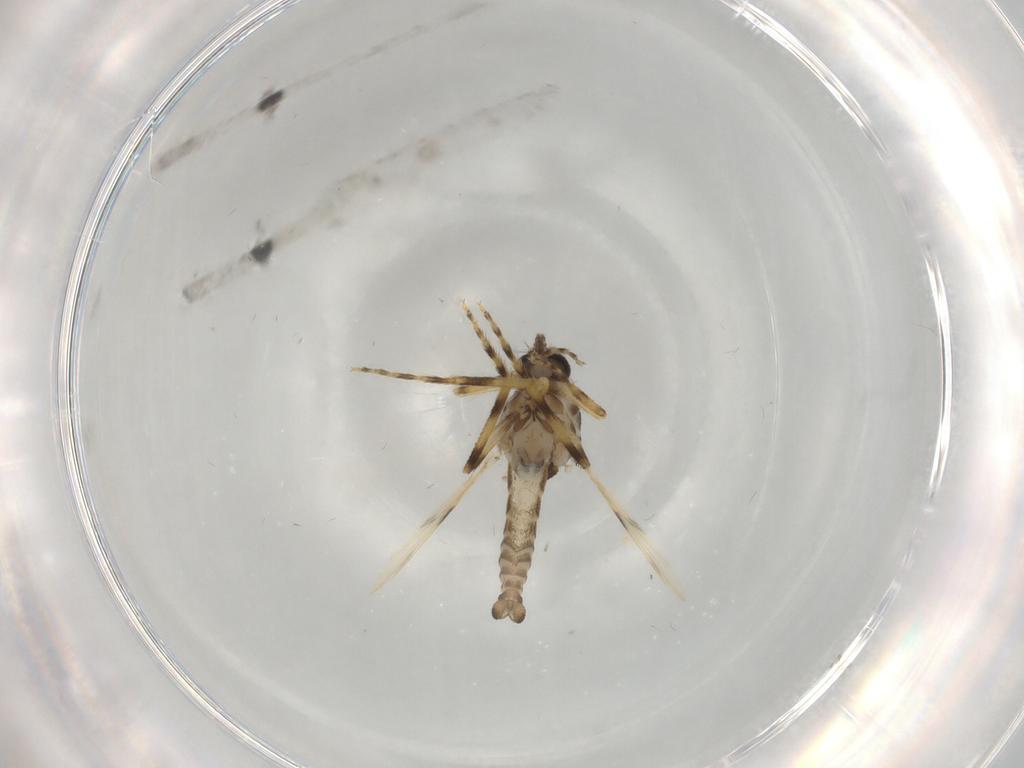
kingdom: Animalia
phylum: Arthropoda
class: Insecta
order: Diptera
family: Ceratopogonidae
